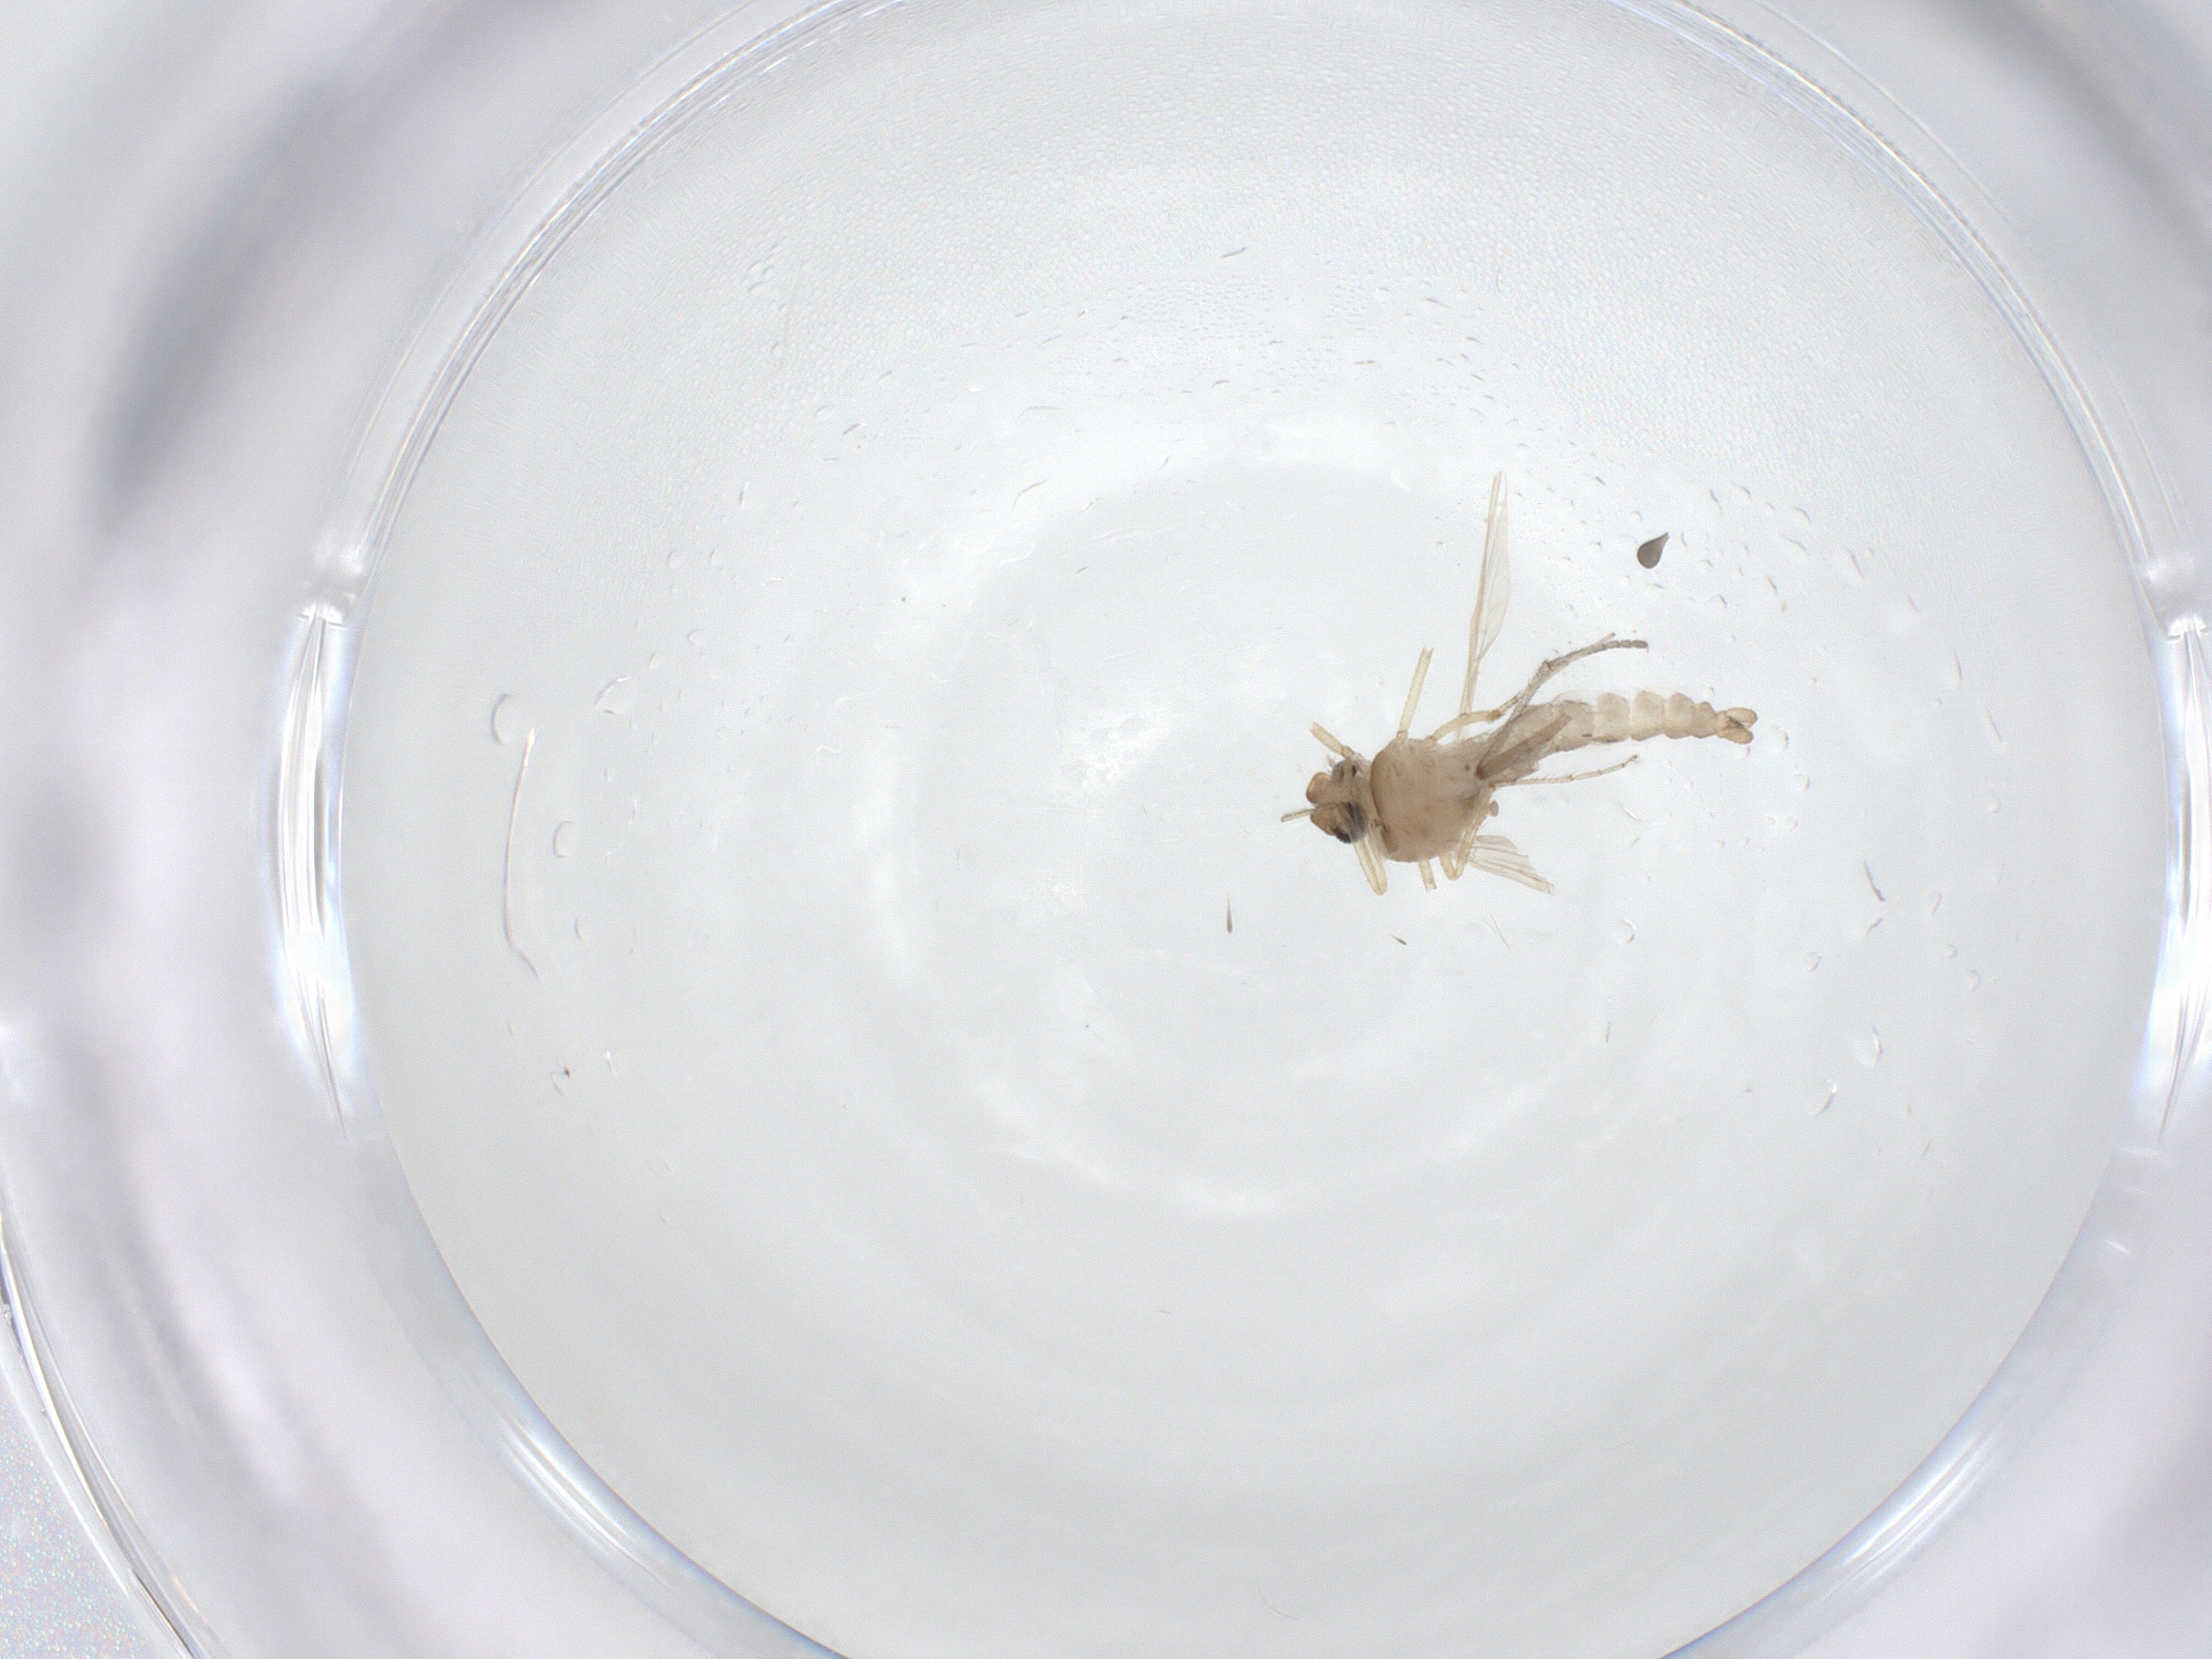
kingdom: Animalia
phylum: Arthropoda
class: Insecta
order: Diptera
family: Ceratopogonidae
